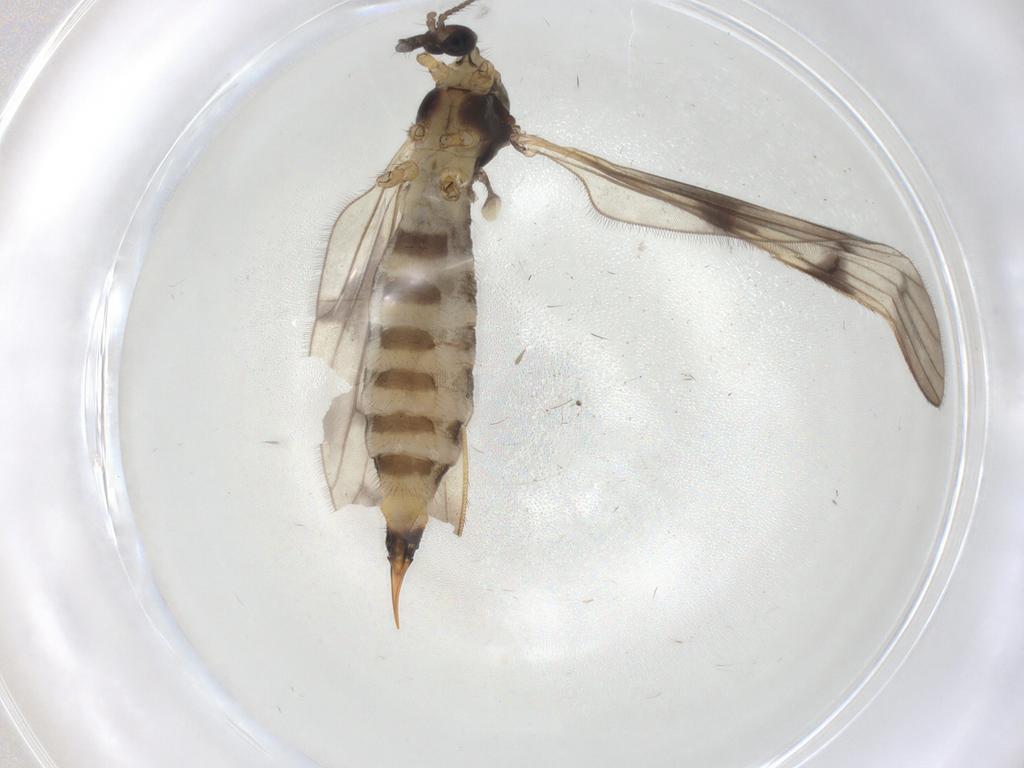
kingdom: Animalia
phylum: Arthropoda
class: Insecta
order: Diptera
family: Limoniidae
